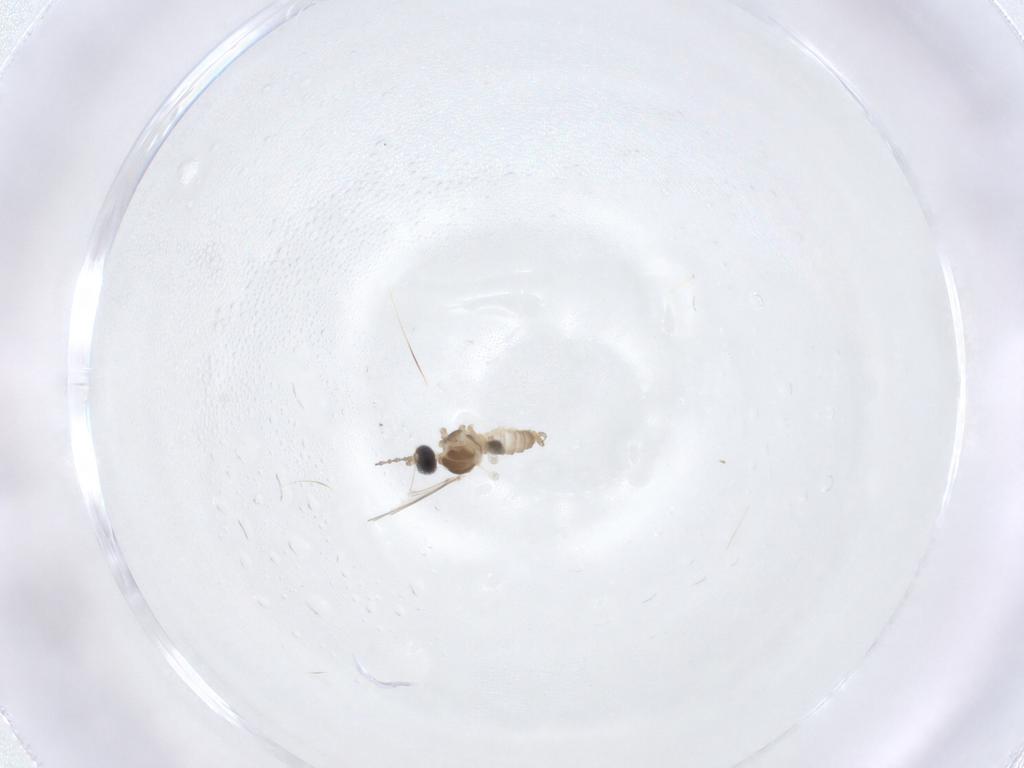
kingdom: Animalia
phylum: Arthropoda
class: Insecta
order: Diptera
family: Cecidomyiidae
